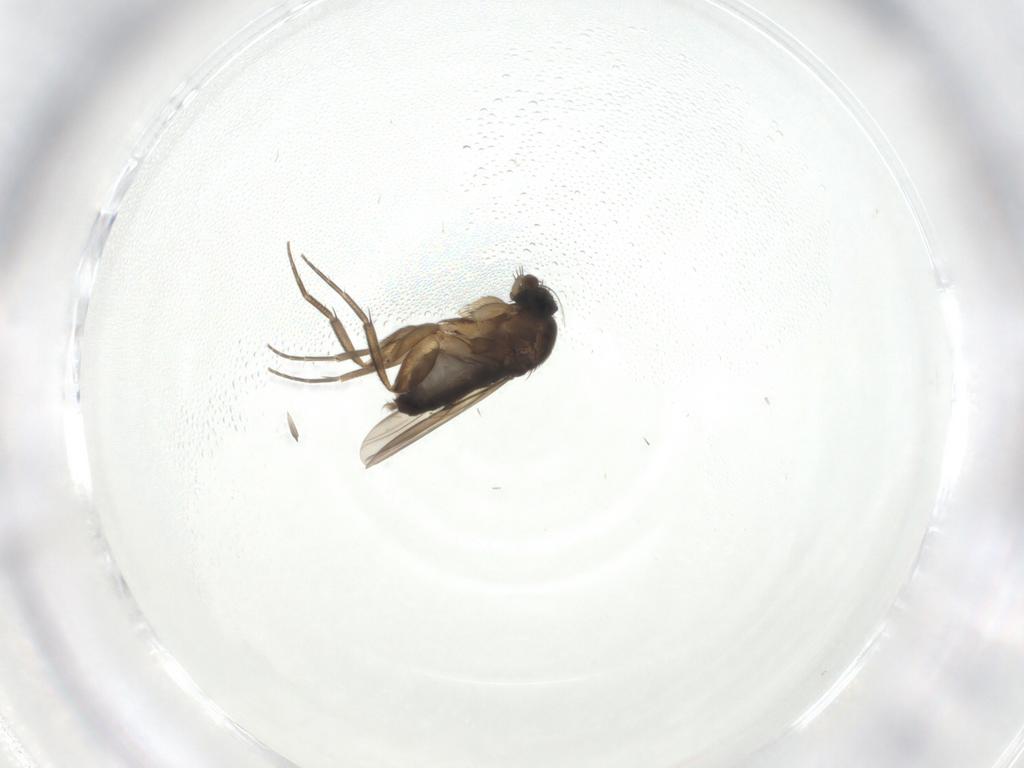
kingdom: Animalia
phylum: Arthropoda
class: Insecta
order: Diptera
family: Phoridae
